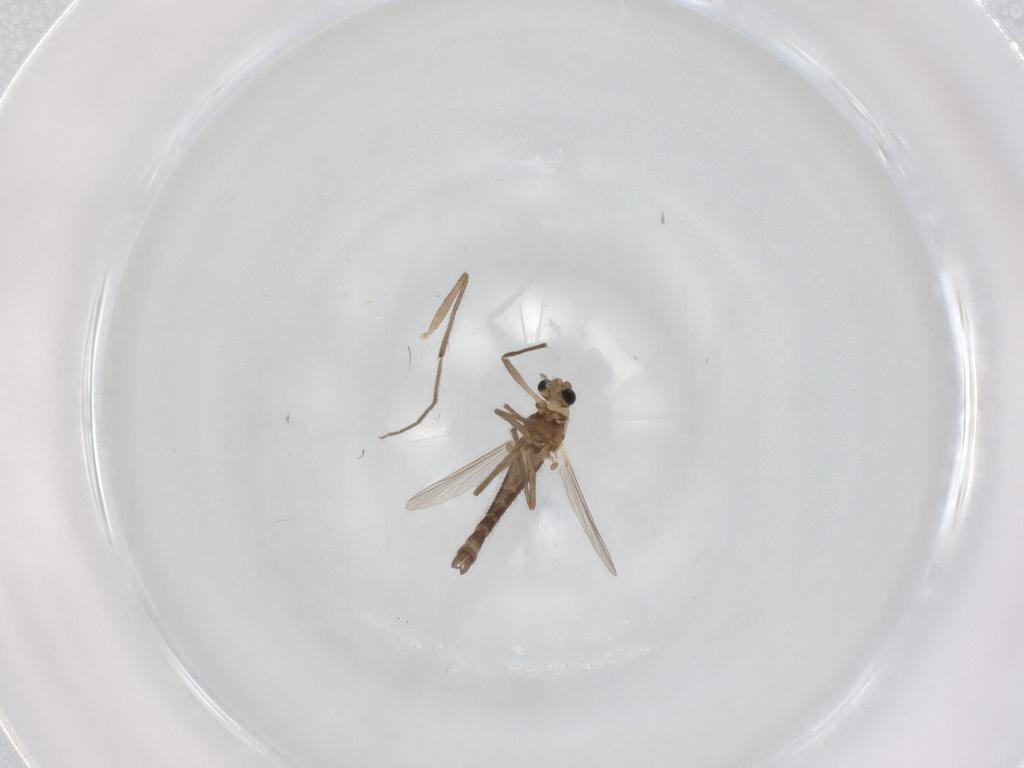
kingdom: Animalia
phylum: Arthropoda
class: Insecta
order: Diptera
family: Chironomidae
